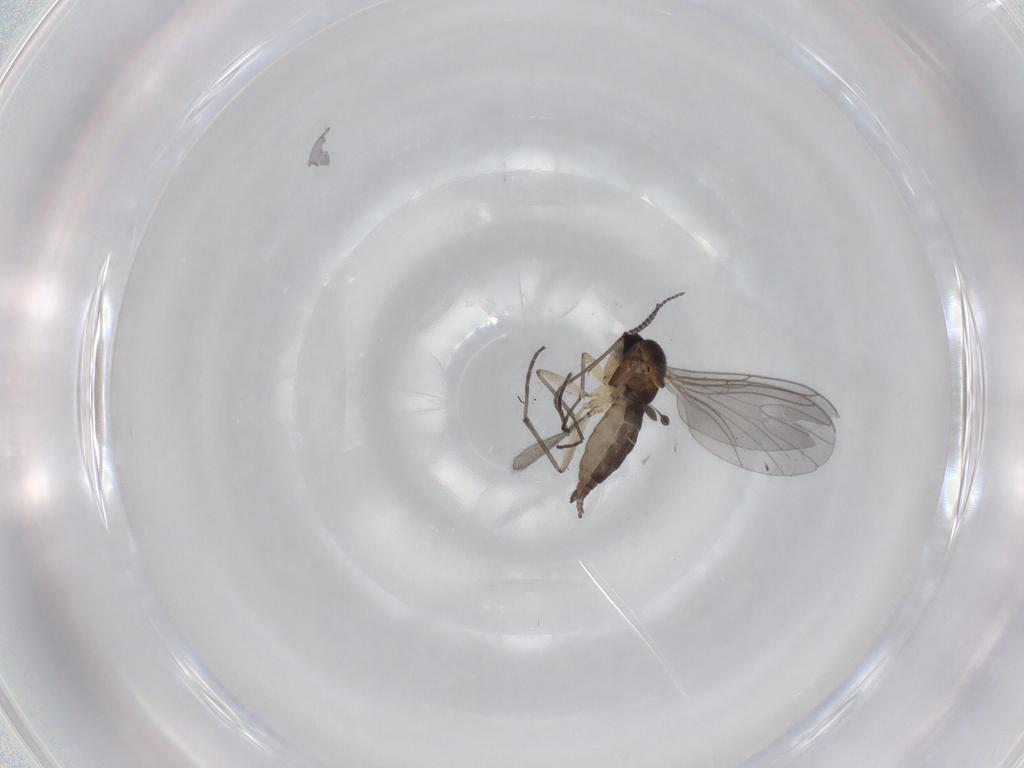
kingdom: Animalia
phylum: Arthropoda
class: Insecta
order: Diptera
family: Sciaridae
